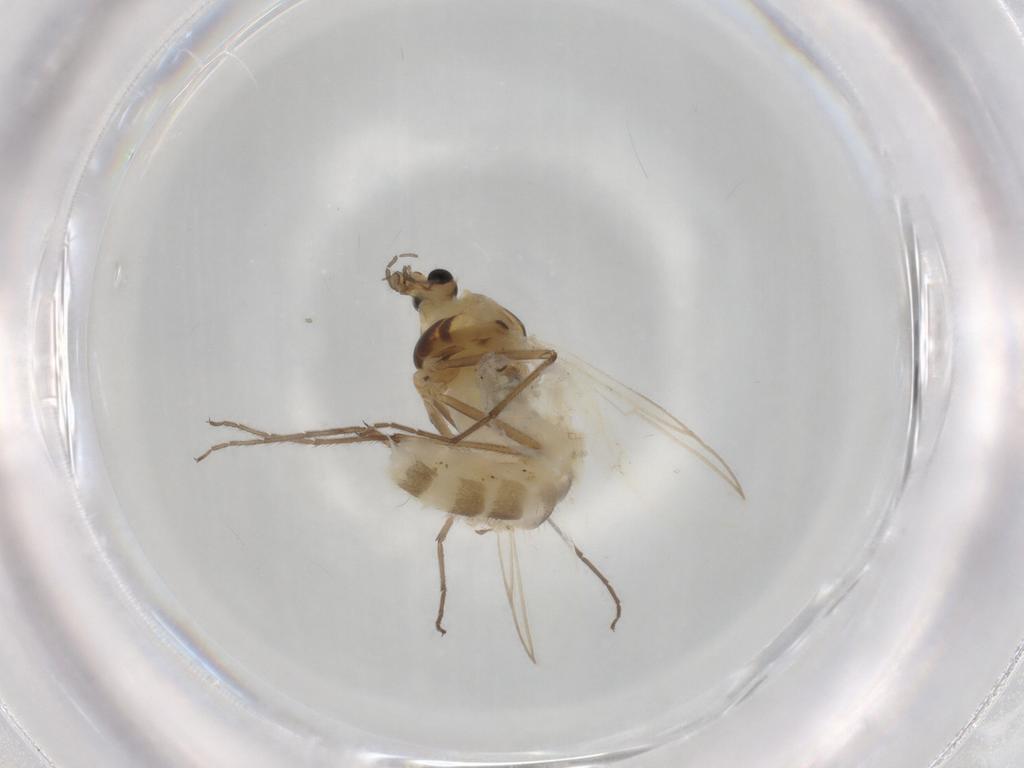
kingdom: Animalia
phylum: Arthropoda
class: Insecta
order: Diptera
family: Chironomidae
